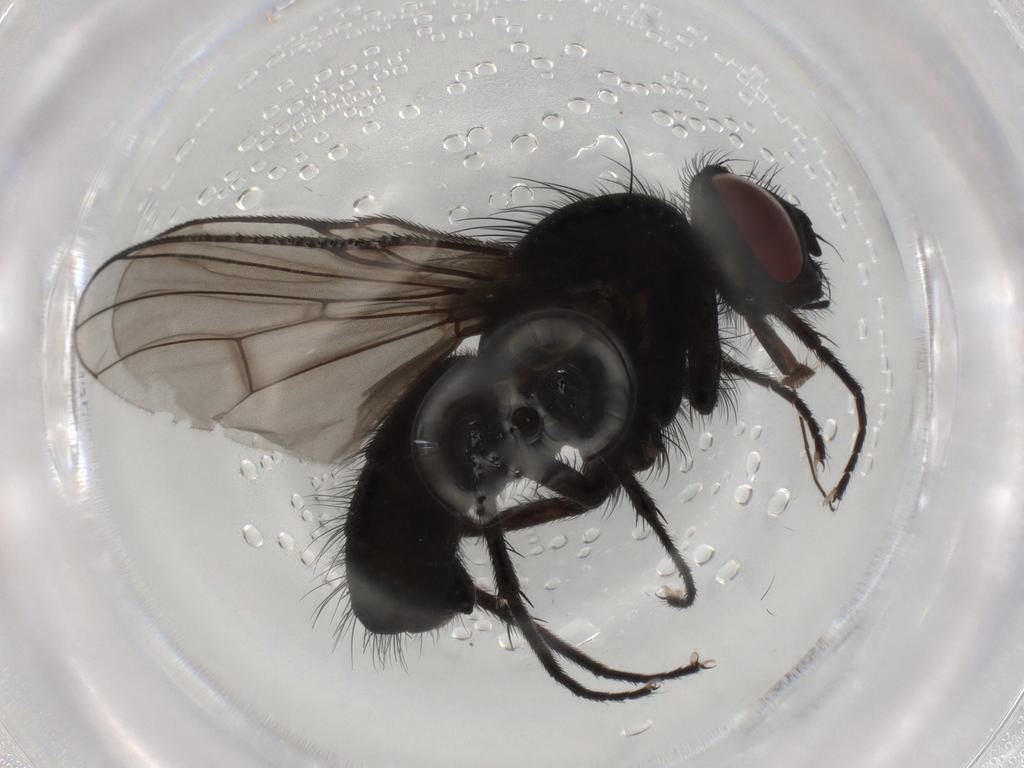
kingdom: Animalia
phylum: Arthropoda
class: Insecta
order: Diptera
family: Muscidae
